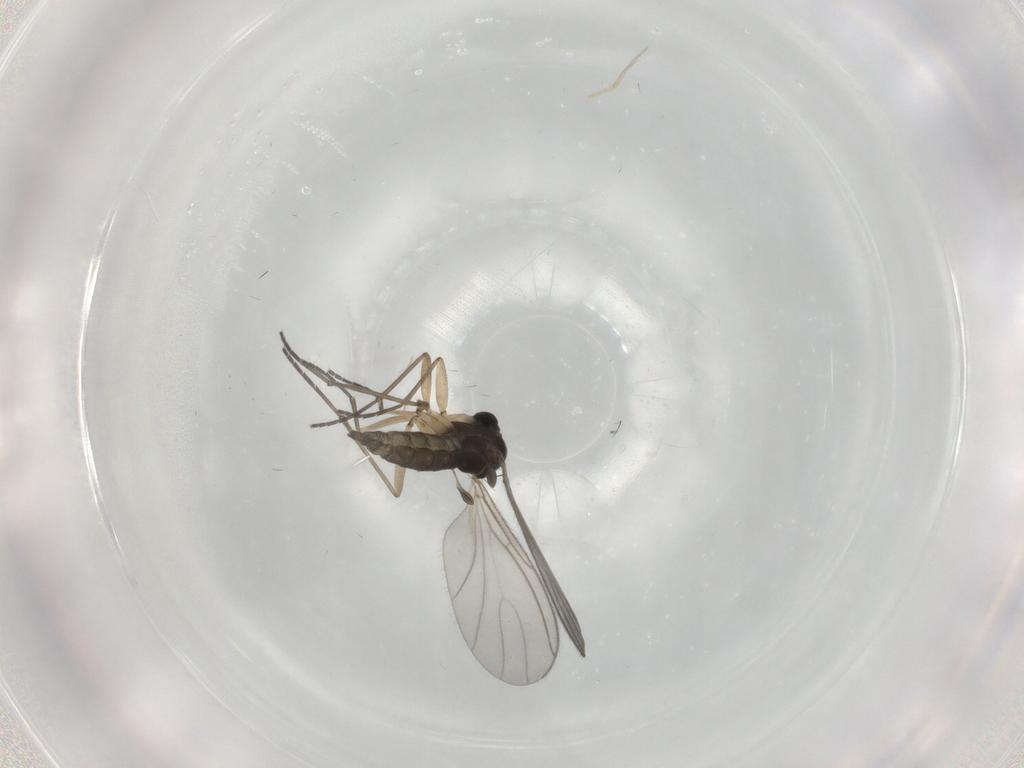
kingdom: Animalia
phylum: Arthropoda
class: Insecta
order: Diptera
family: Sciaridae
